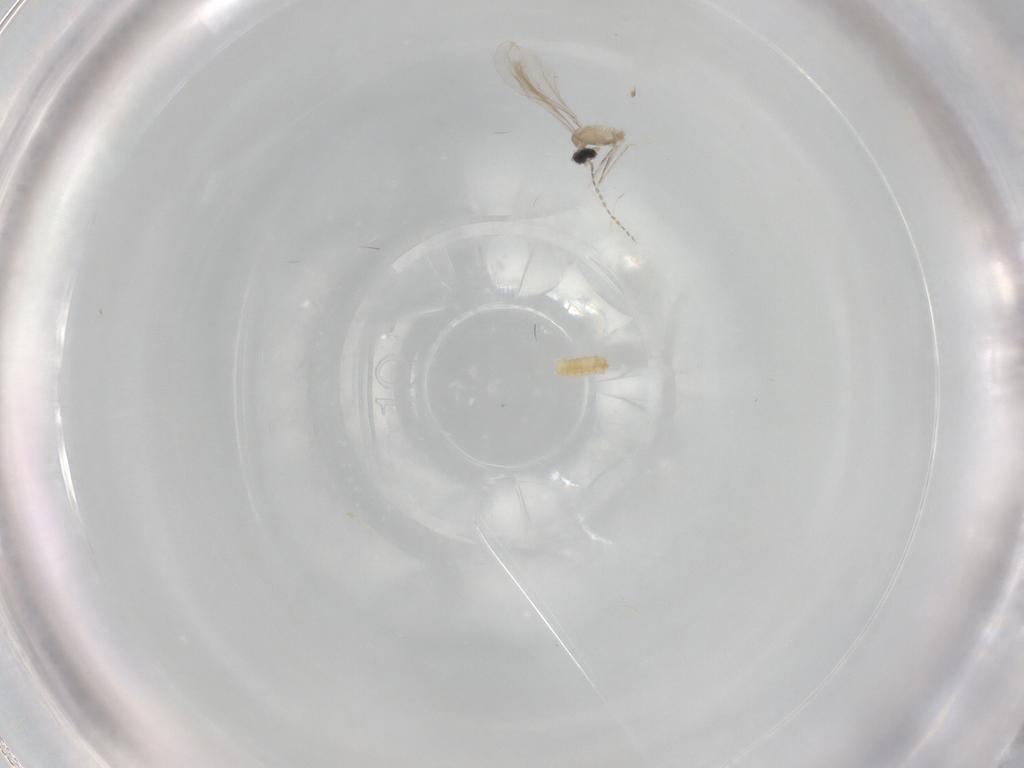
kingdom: Animalia
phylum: Arthropoda
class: Insecta
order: Diptera
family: Cecidomyiidae
